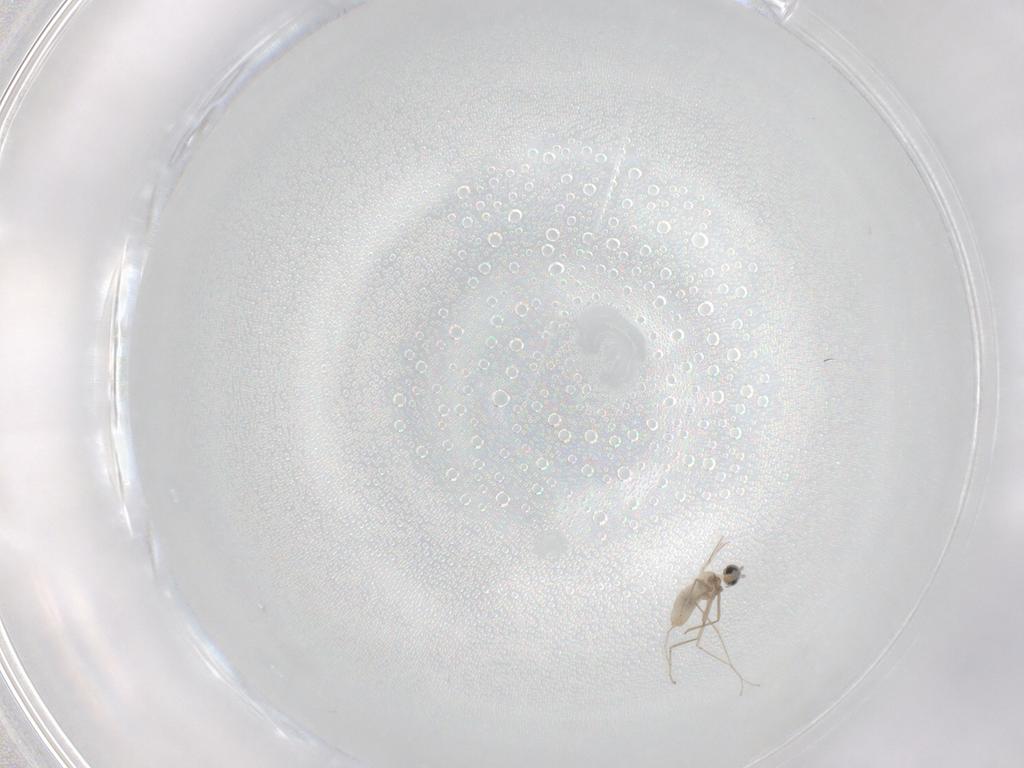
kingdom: Animalia
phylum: Arthropoda
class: Insecta
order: Diptera
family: Cecidomyiidae
